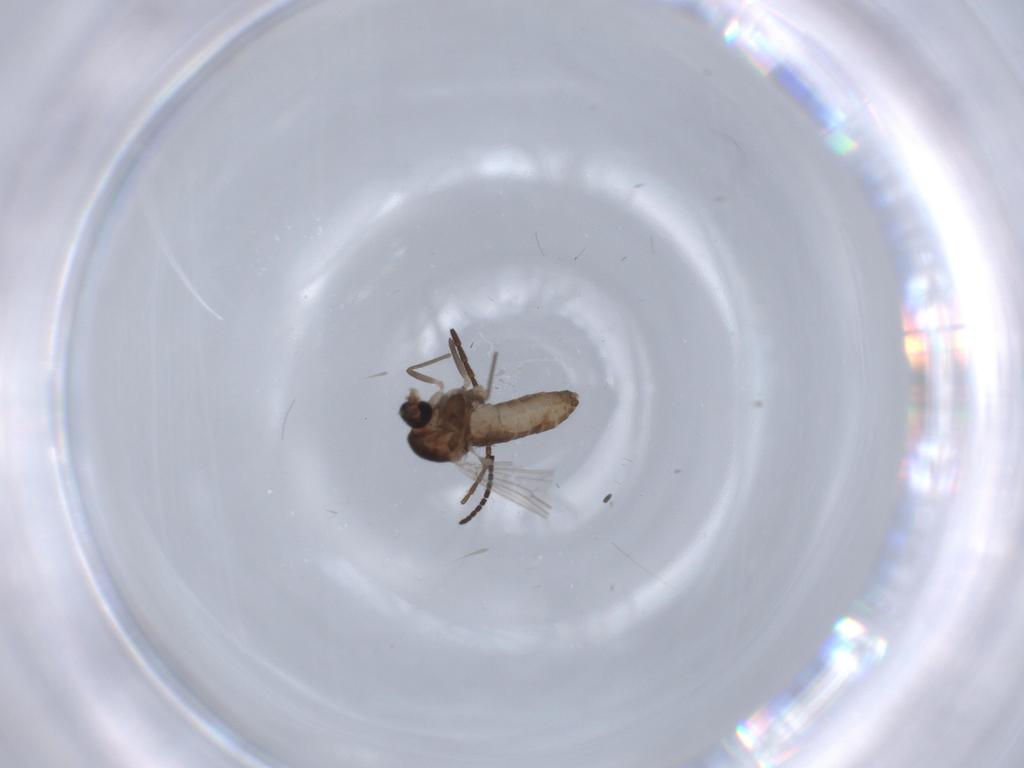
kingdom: Animalia
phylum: Arthropoda
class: Insecta
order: Diptera
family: Chironomidae
